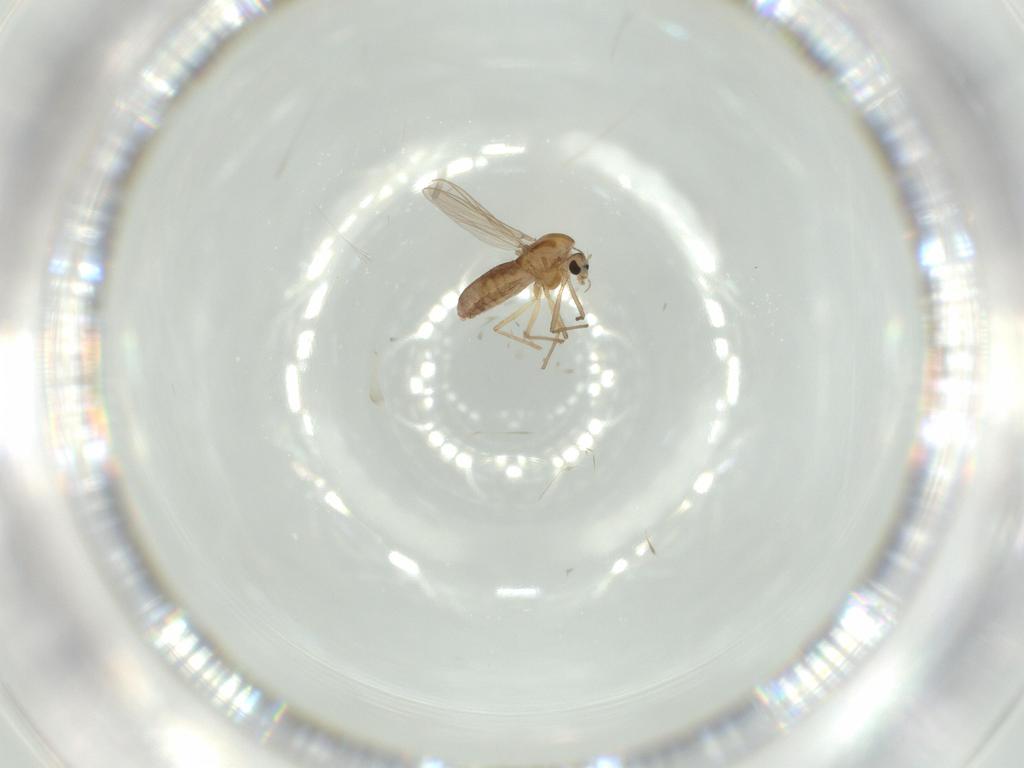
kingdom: Animalia
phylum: Arthropoda
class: Insecta
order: Diptera
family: Chironomidae
